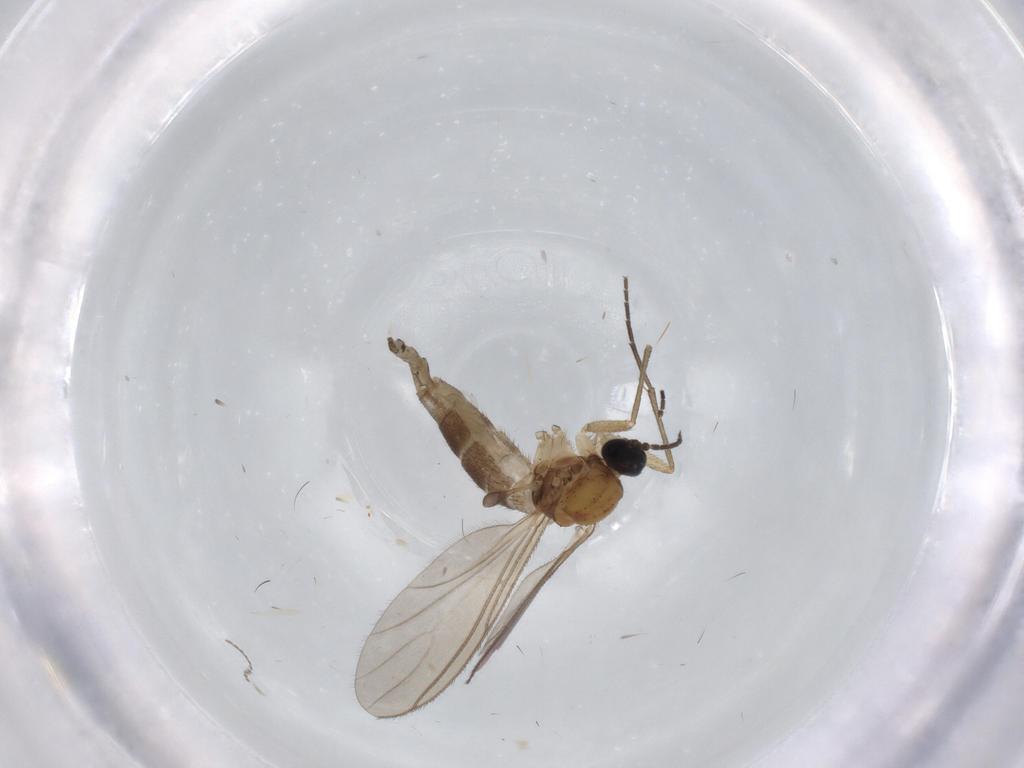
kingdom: Animalia
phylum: Arthropoda
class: Insecta
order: Diptera
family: Cecidomyiidae
